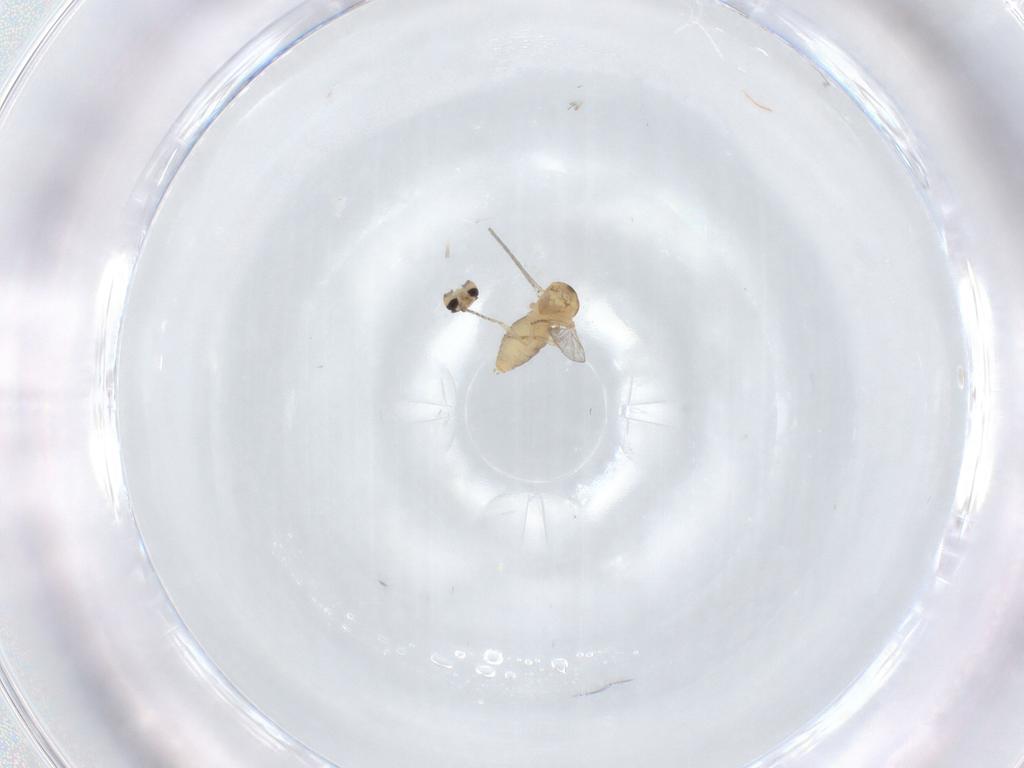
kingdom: Animalia
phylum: Arthropoda
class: Insecta
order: Diptera
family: Ceratopogonidae
